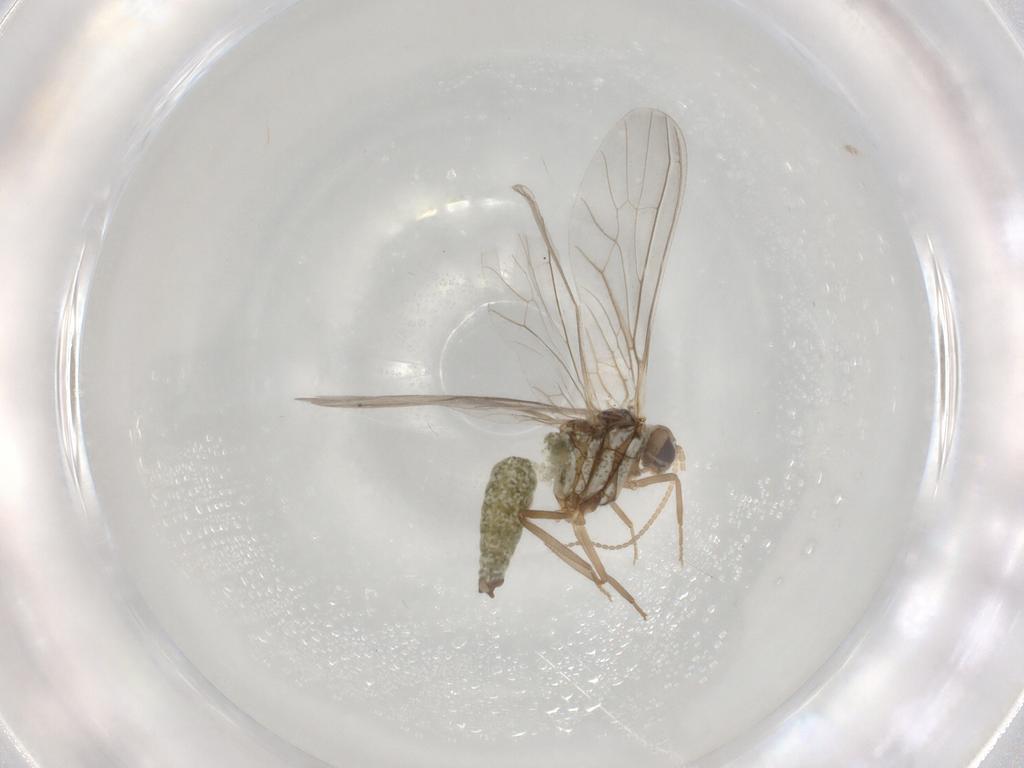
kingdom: Animalia
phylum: Arthropoda
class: Insecta
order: Neuroptera
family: Coniopterygidae
